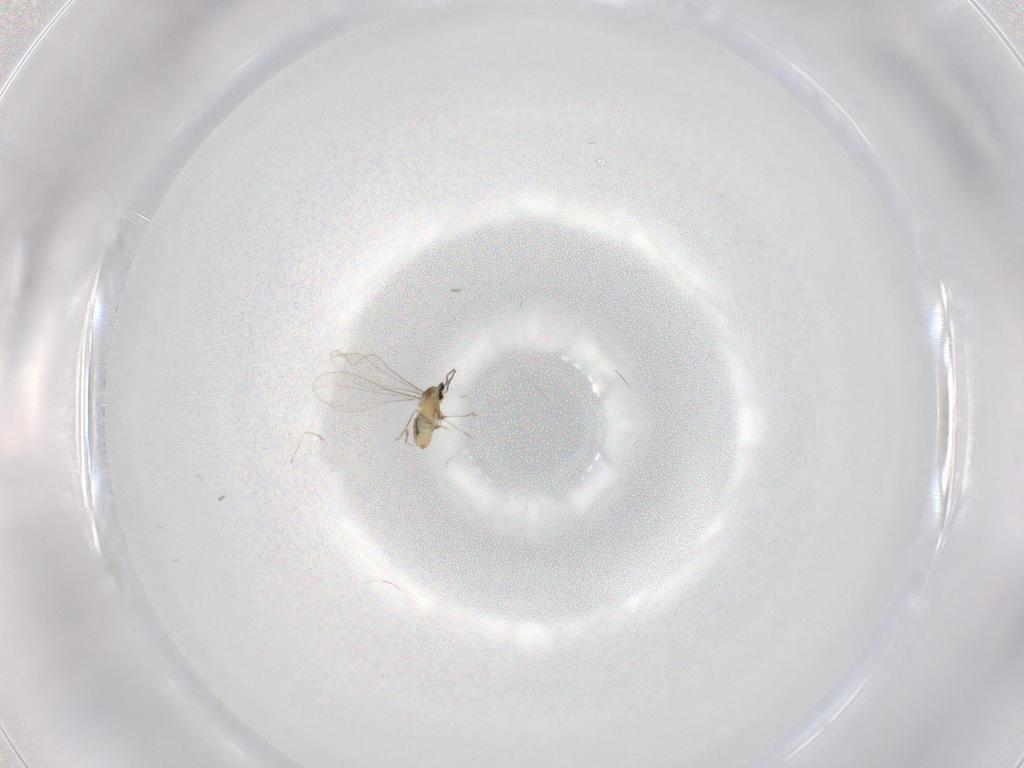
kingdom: Animalia
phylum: Arthropoda
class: Insecta
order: Diptera
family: Cecidomyiidae
